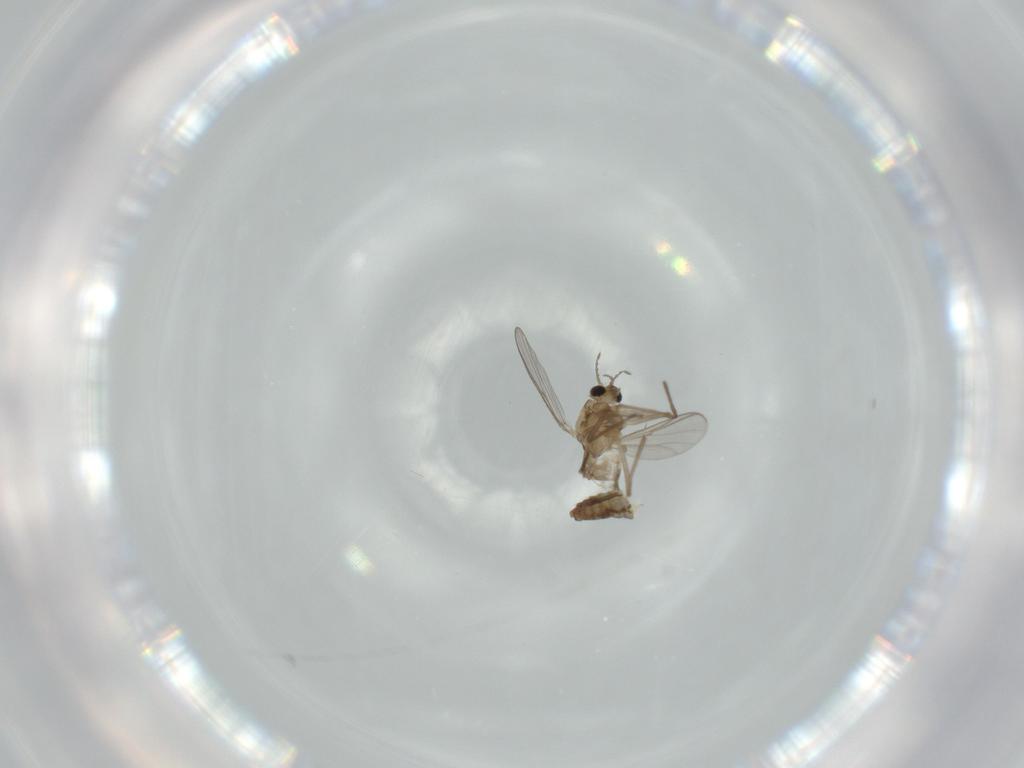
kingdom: Animalia
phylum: Arthropoda
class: Insecta
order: Diptera
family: Chironomidae
